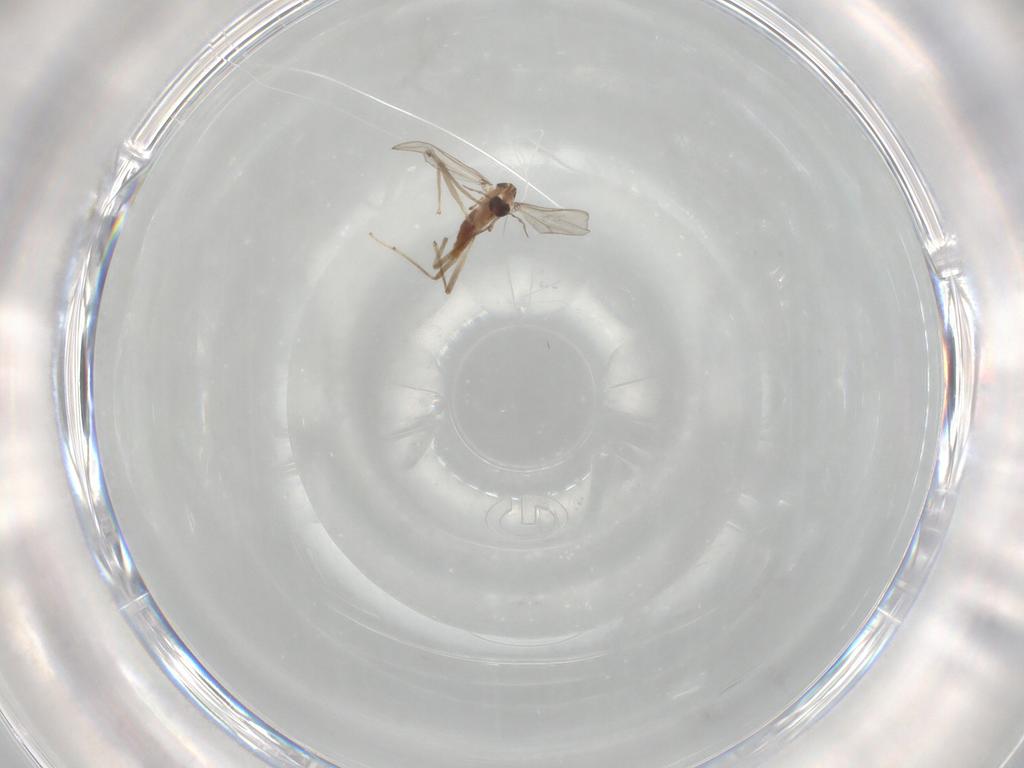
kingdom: Animalia
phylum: Arthropoda
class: Insecta
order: Diptera
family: Chironomidae
